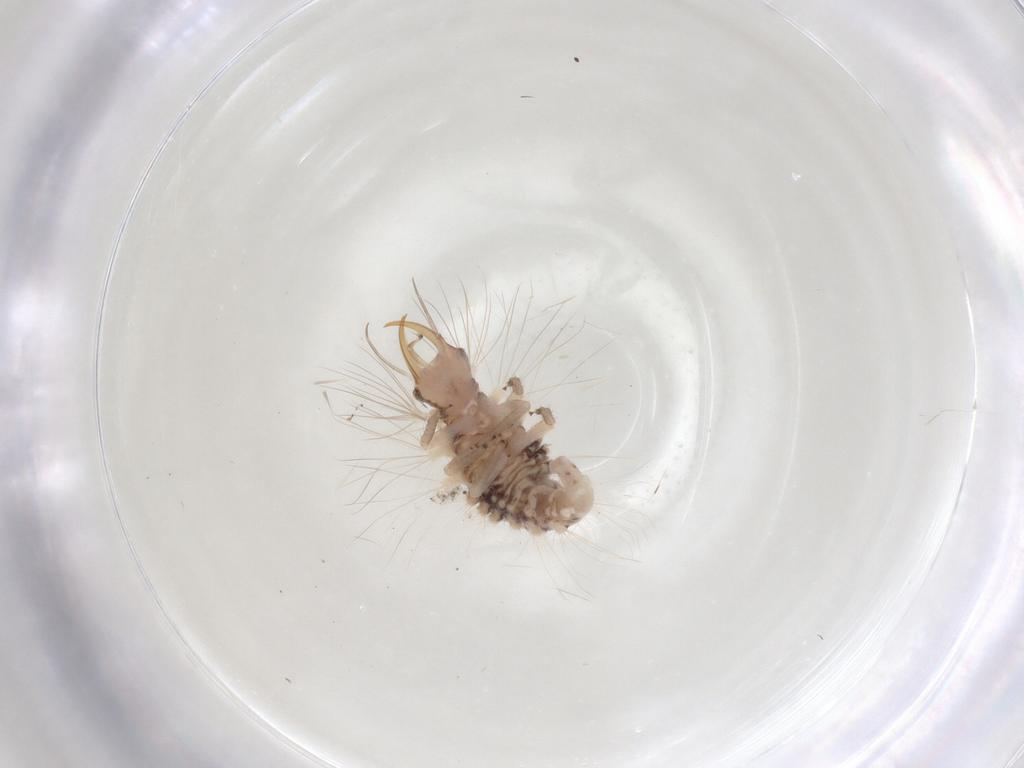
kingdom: Animalia
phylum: Arthropoda
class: Insecta
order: Neuroptera
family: Chrysopidae
